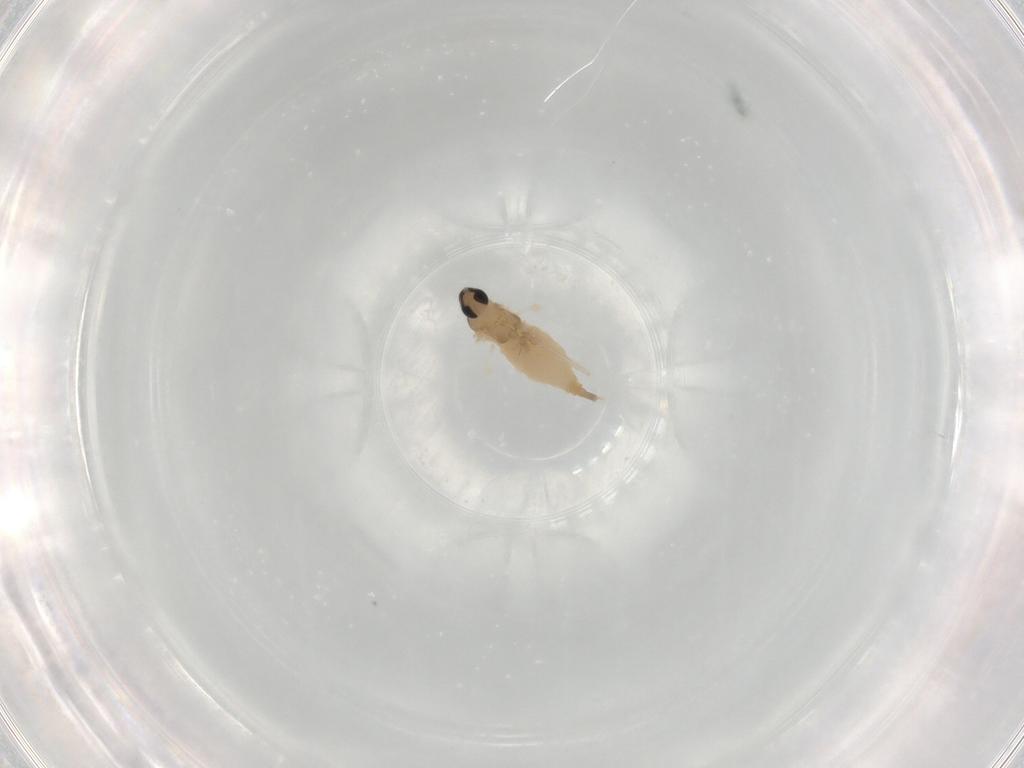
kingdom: Animalia
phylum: Arthropoda
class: Insecta
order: Diptera
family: Cecidomyiidae
